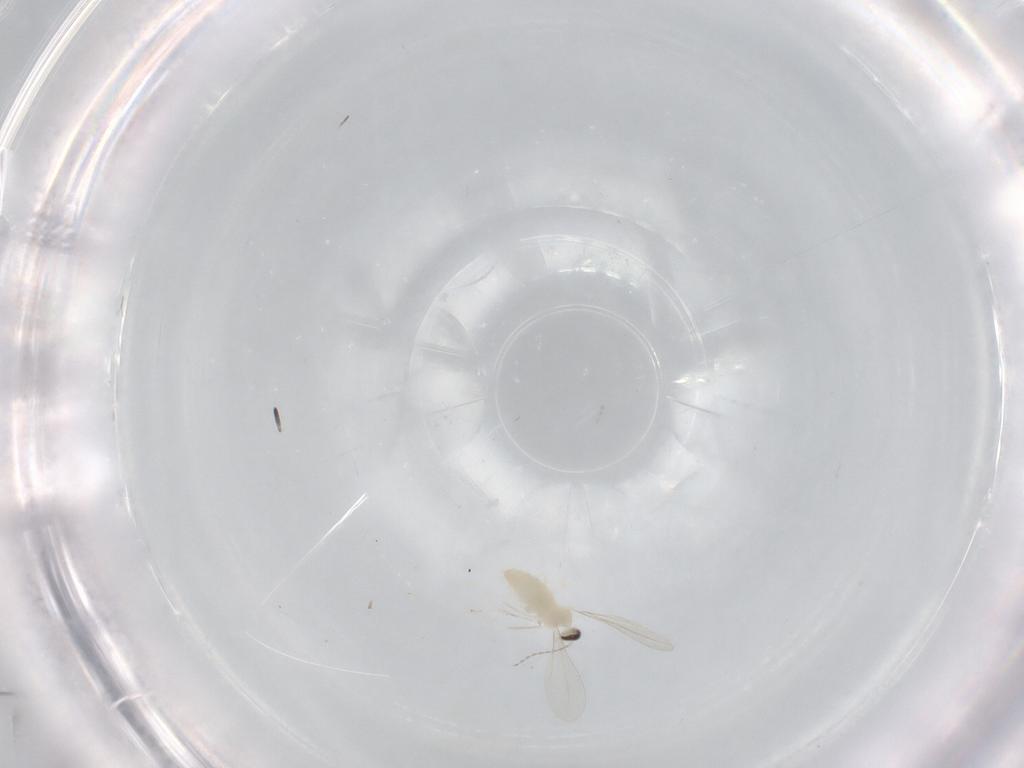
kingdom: Animalia
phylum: Arthropoda
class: Insecta
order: Diptera
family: Cecidomyiidae
